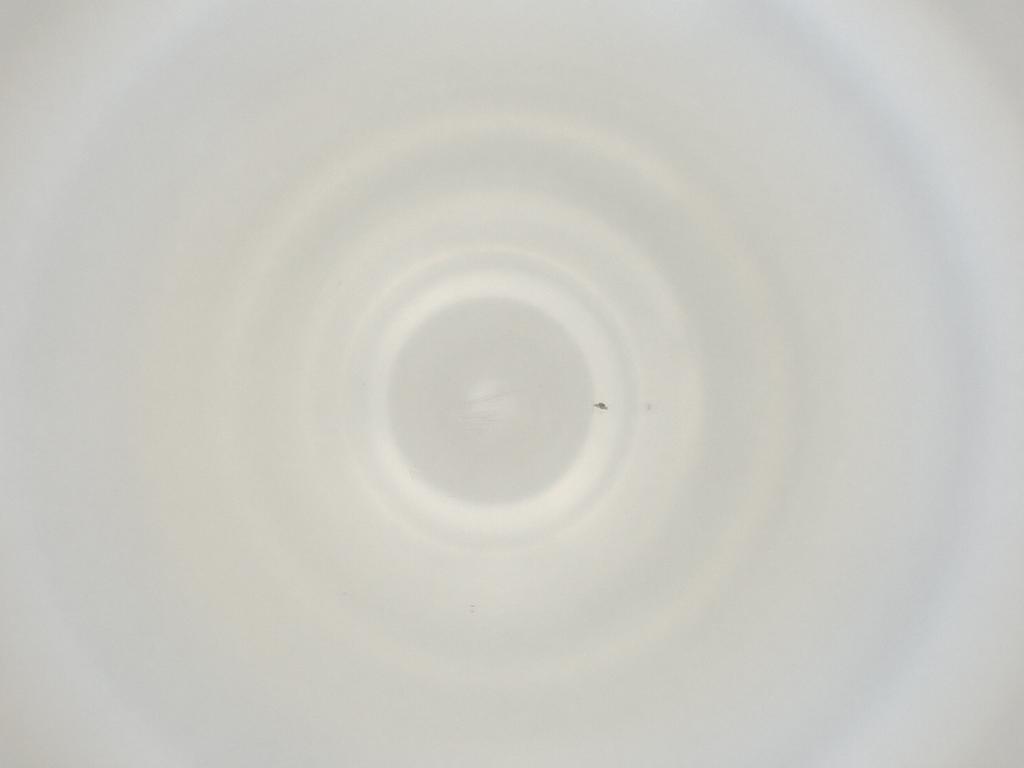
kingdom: Animalia
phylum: Arthropoda
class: Insecta
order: Diptera
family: Cecidomyiidae
